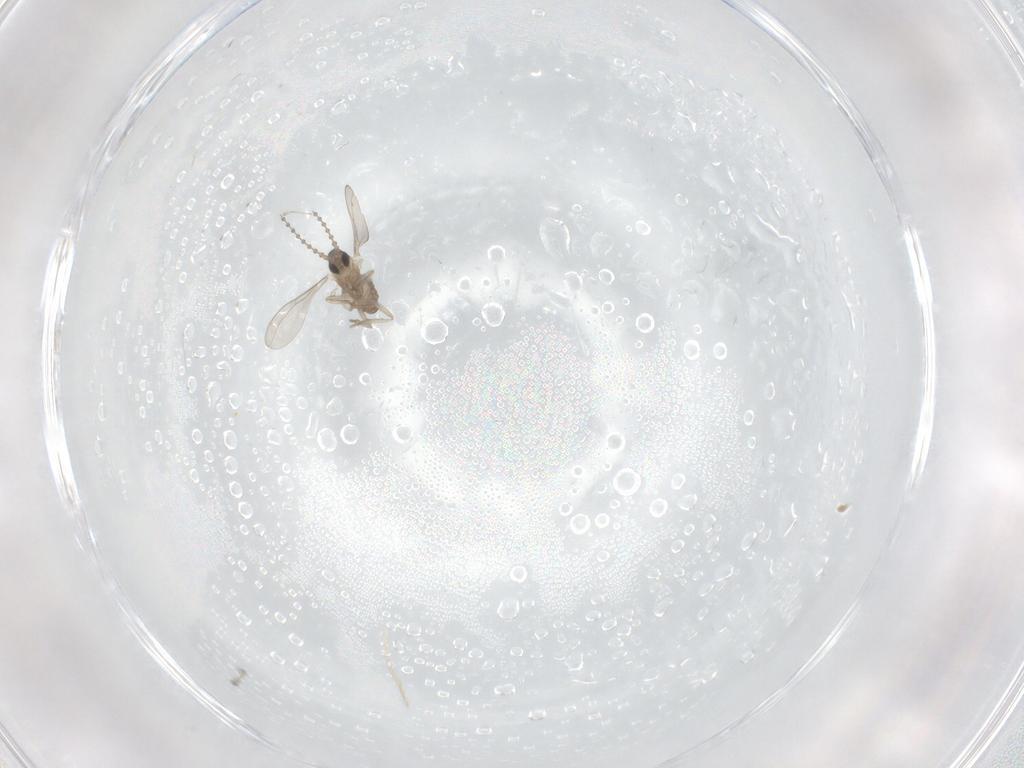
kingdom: Animalia
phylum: Arthropoda
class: Insecta
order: Diptera
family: Cecidomyiidae
